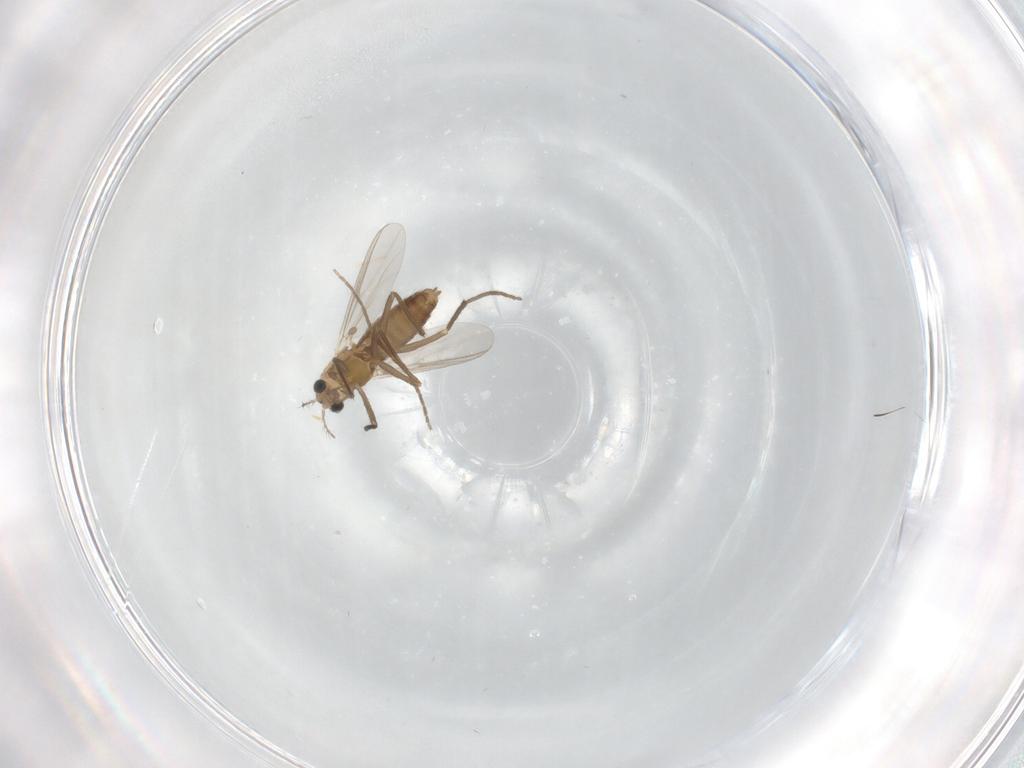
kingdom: Animalia
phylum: Arthropoda
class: Insecta
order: Diptera
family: Chironomidae
